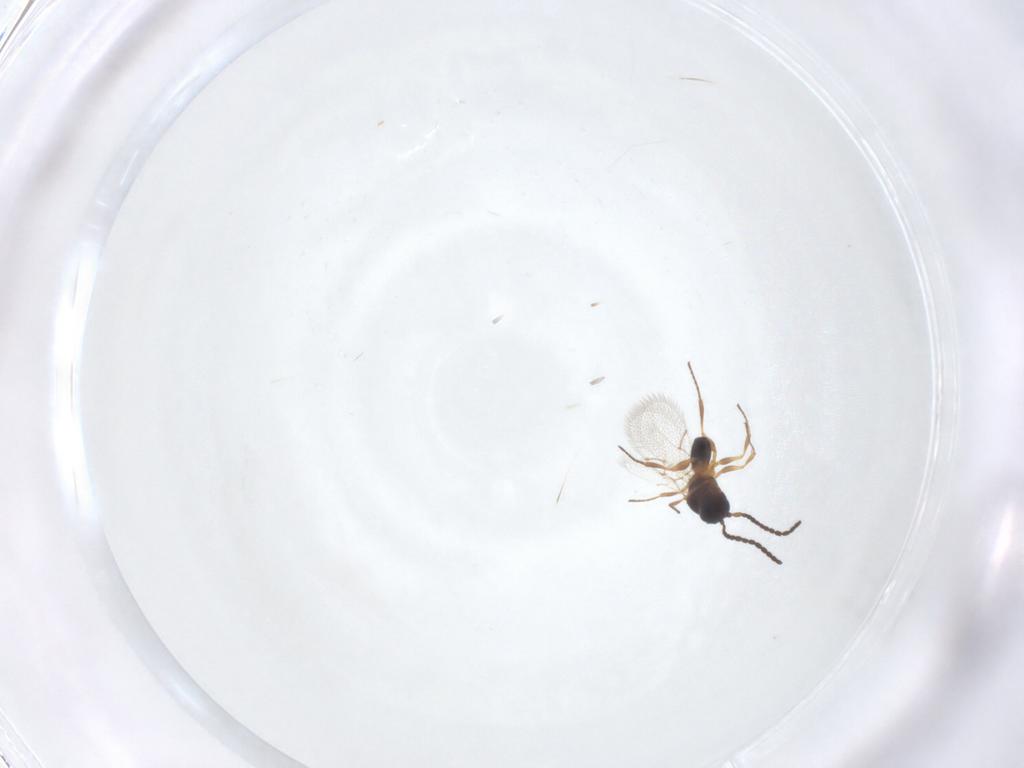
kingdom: Animalia
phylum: Arthropoda
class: Insecta
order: Hymenoptera
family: Figitidae
